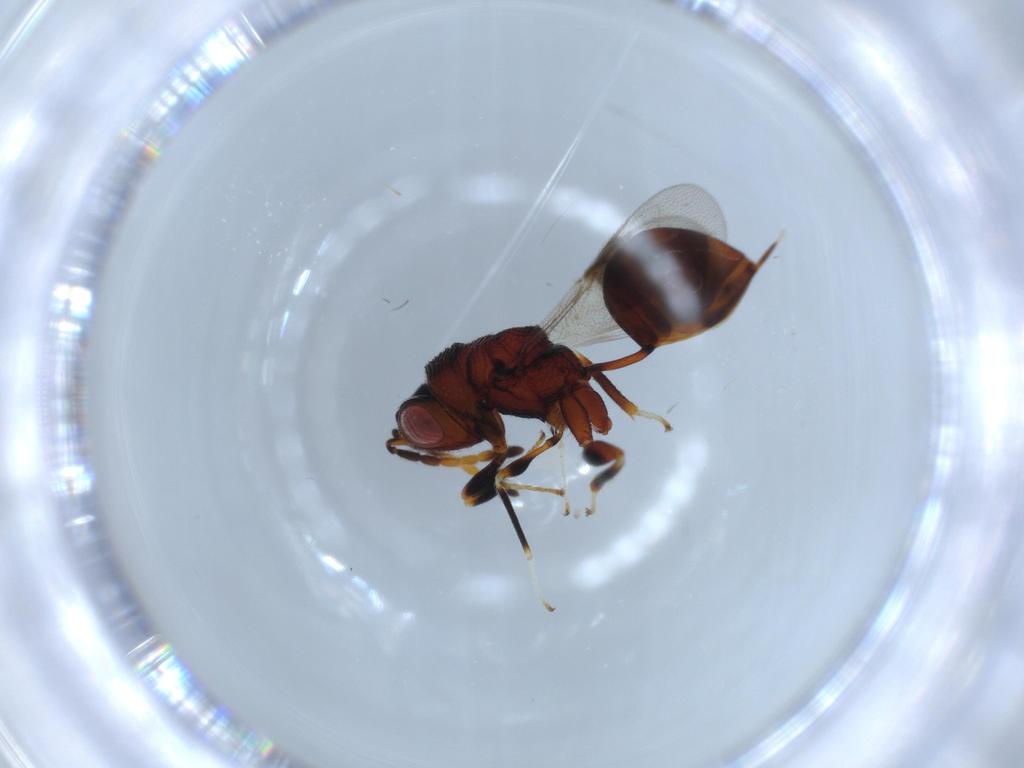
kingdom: Animalia
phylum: Arthropoda
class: Insecta
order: Hymenoptera
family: Eurytomidae
